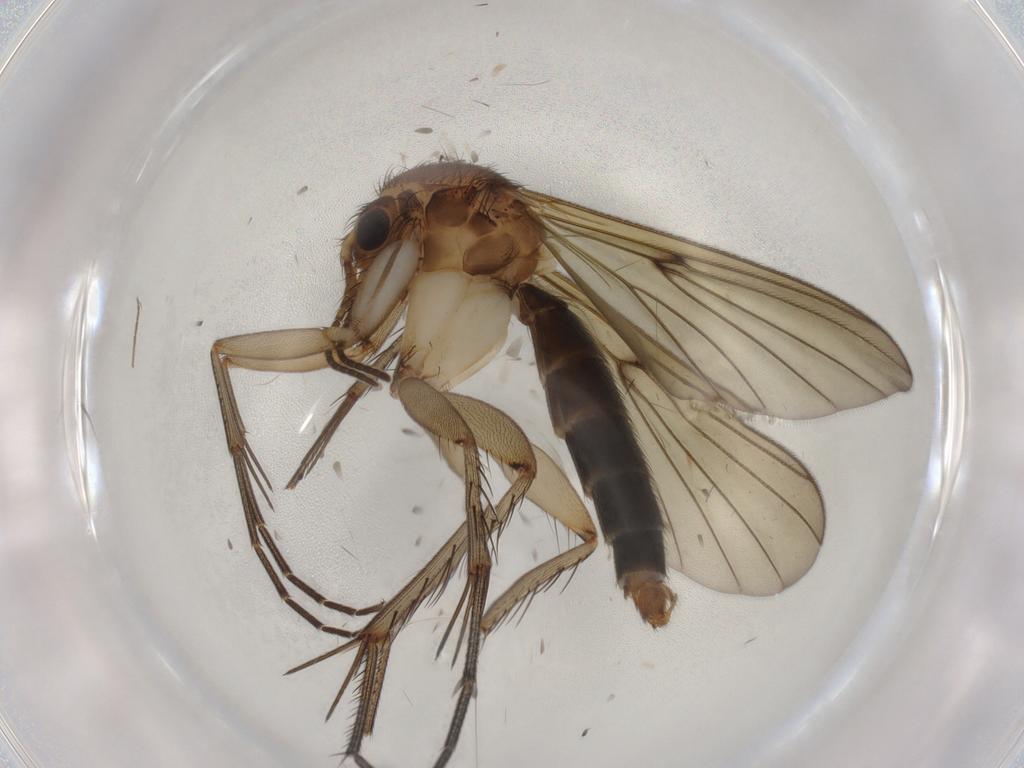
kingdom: Animalia
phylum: Arthropoda
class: Insecta
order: Diptera
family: Mycetophilidae
